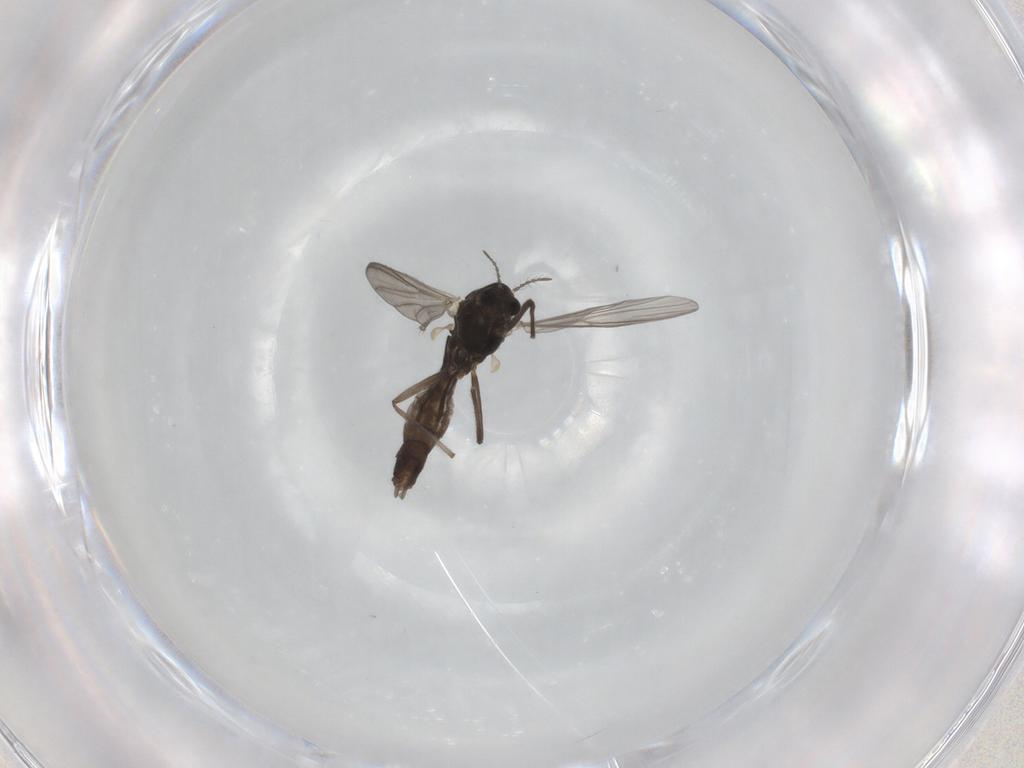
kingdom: Animalia
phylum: Arthropoda
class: Insecta
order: Diptera
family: Chironomidae
